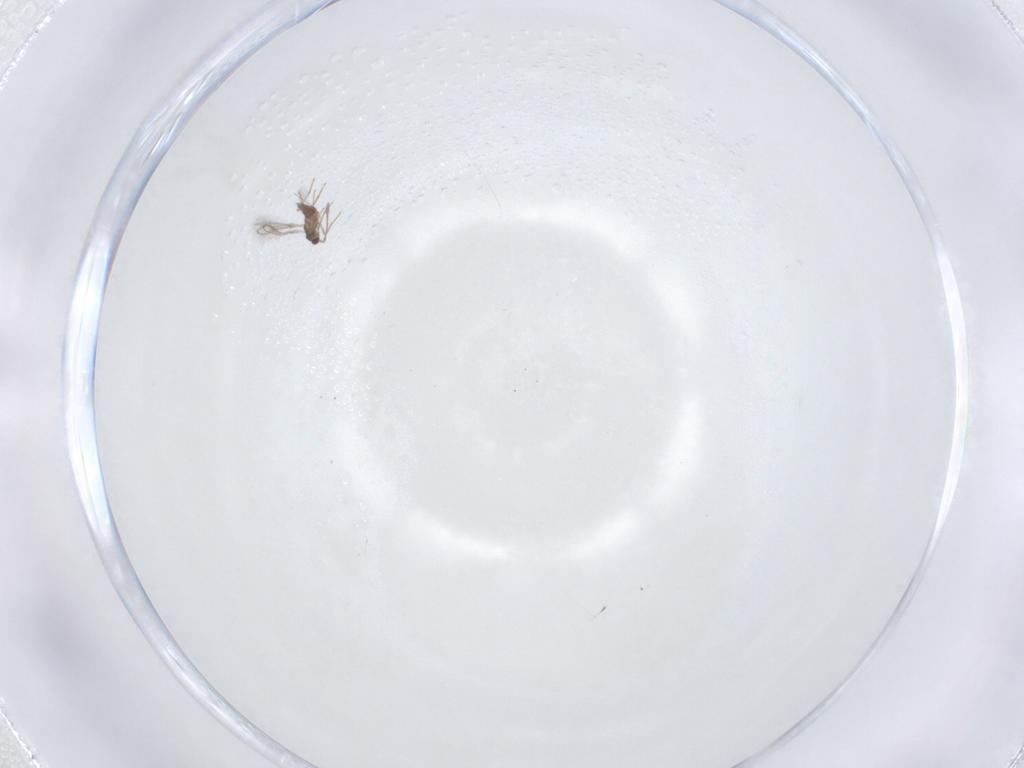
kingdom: Animalia
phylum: Arthropoda
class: Insecta
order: Hymenoptera
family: Mymaridae
